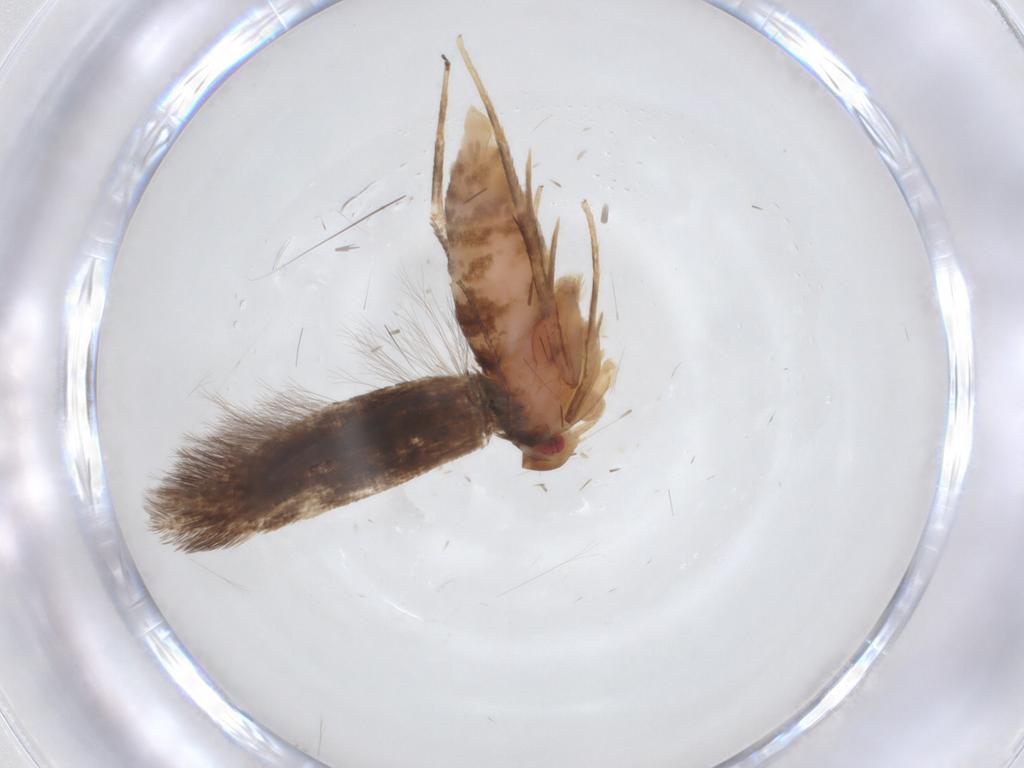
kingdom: Animalia
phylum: Arthropoda
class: Insecta
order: Lepidoptera
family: Cosmopterigidae
